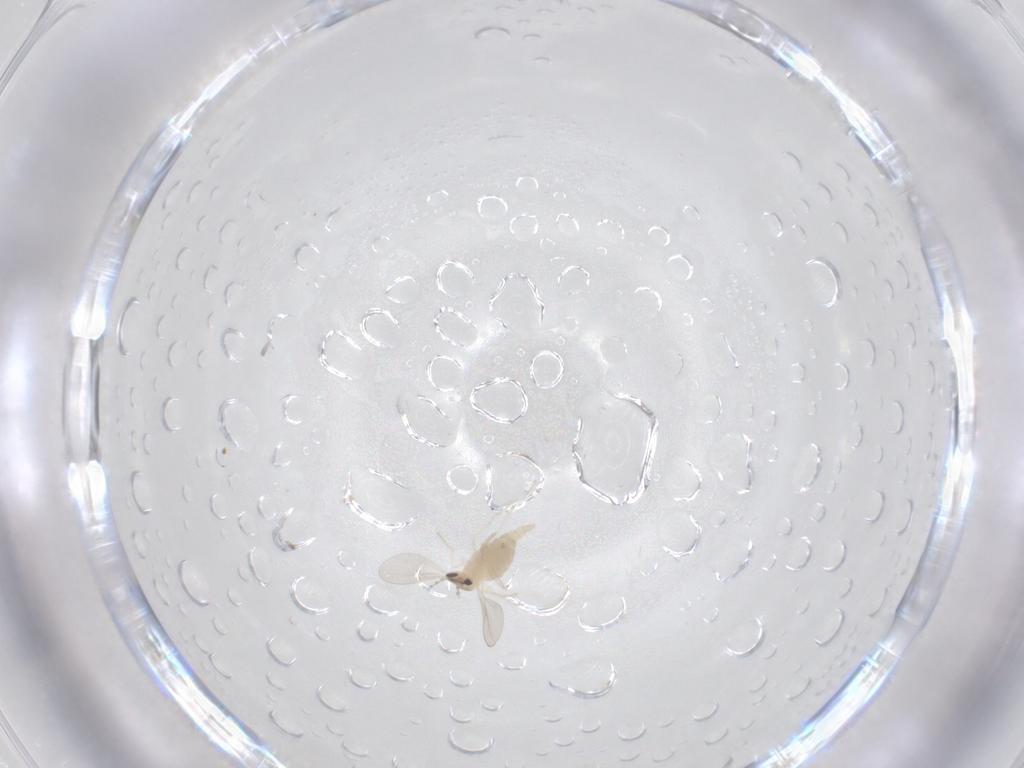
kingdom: Animalia
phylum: Arthropoda
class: Insecta
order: Diptera
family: Cecidomyiidae
